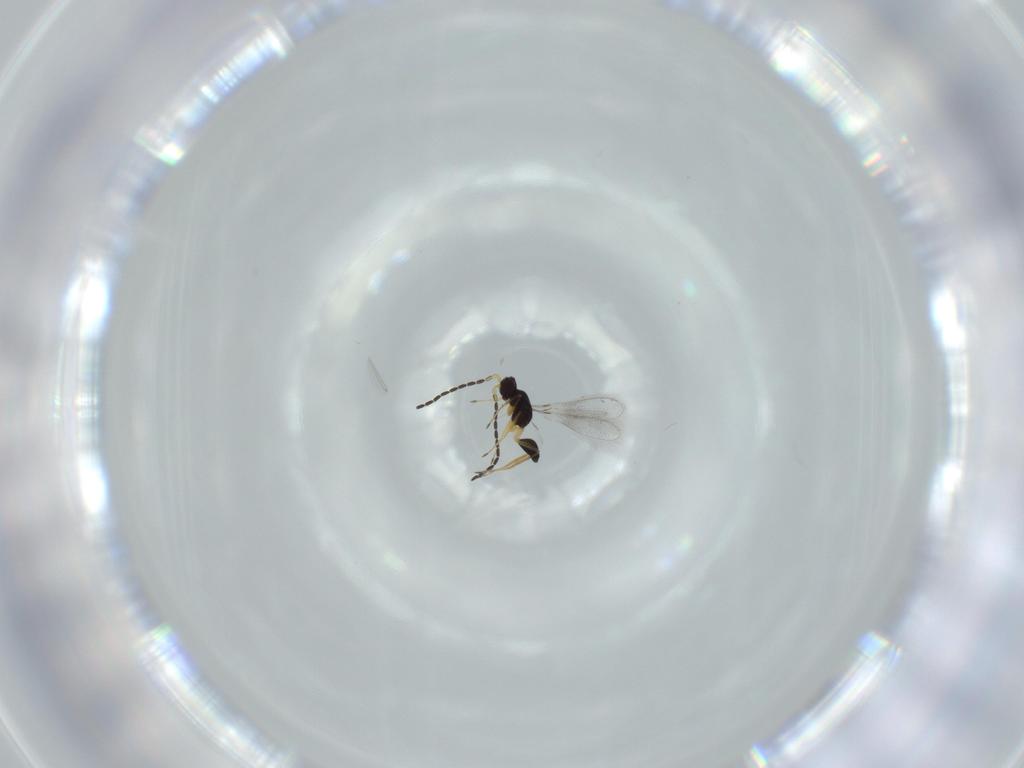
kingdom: Animalia
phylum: Arthropoda
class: Insecta
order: Hymenoptera
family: Mymaridae
